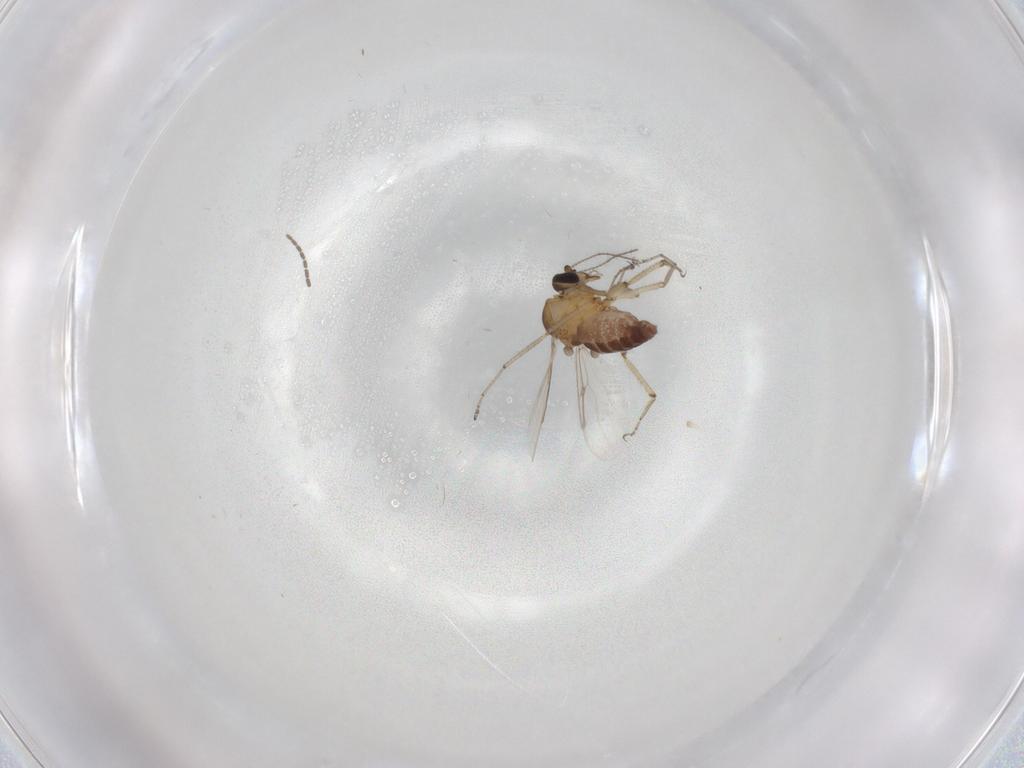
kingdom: Animalia
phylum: Arthropoda
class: Insecta
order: Diptera
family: Ceratopogonidae
